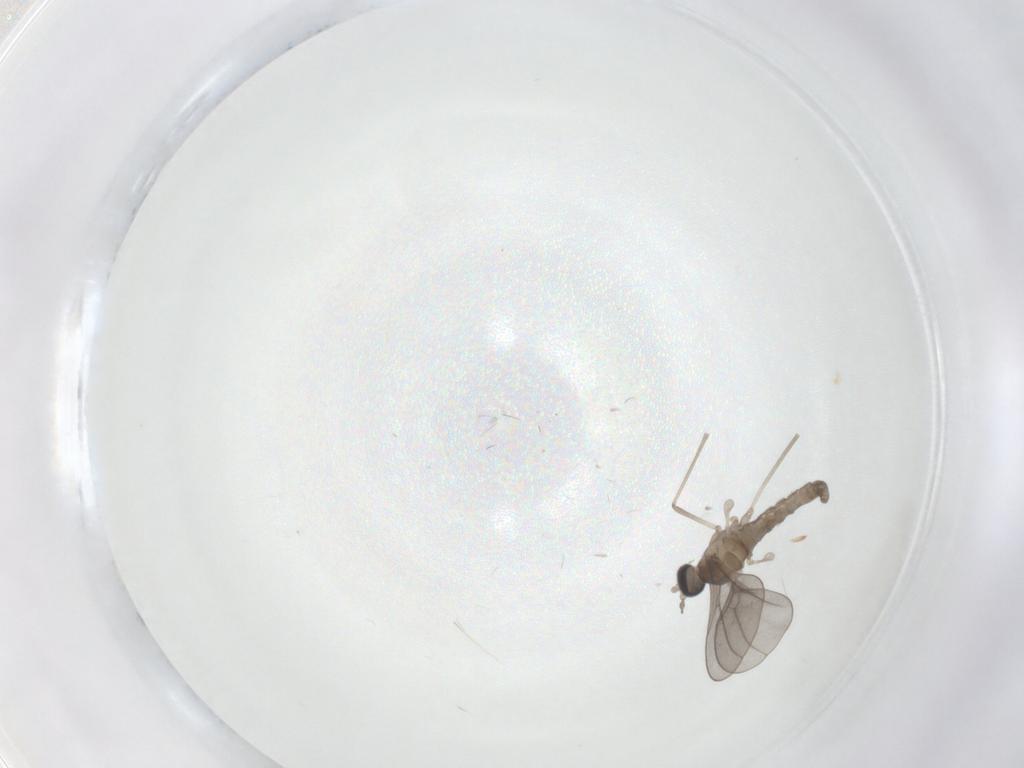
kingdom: Animalia
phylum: Arthropoda
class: Insecta
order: Diptera
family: Cecidomyiidae
